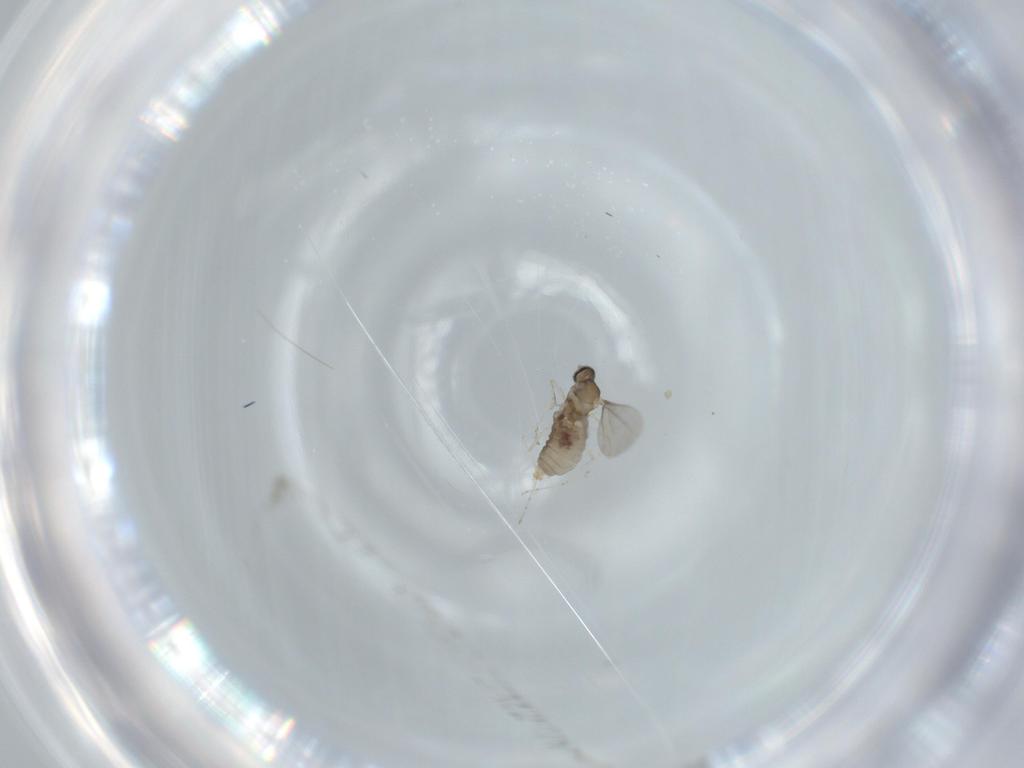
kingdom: Animalia
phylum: Arthropoda
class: Insecta
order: Diptera
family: Cecidomyiidae
